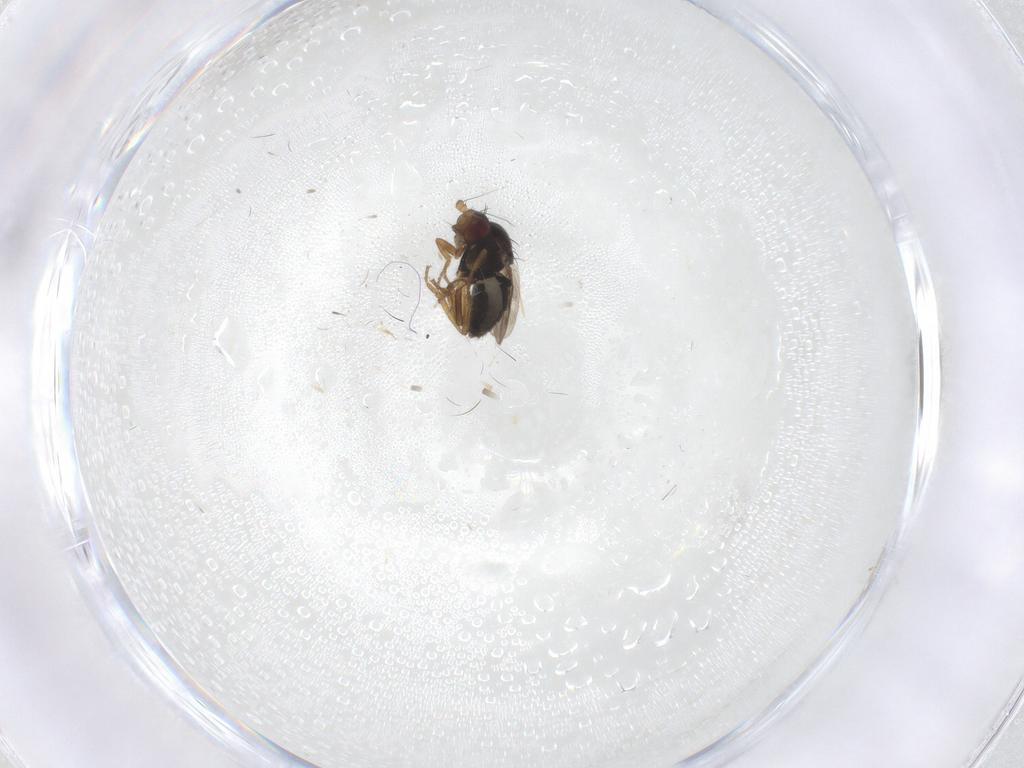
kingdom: Animalia
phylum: Arthropoda
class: Insecta
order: Diptera
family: Sphaeroceridae
